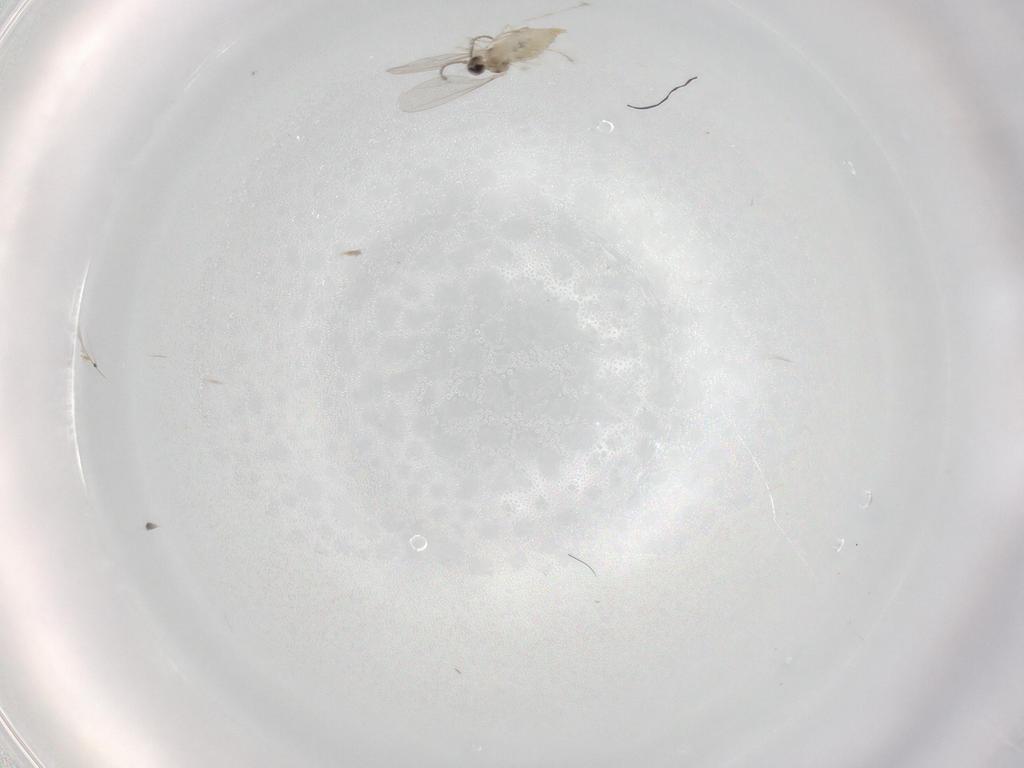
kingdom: Animalia
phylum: Arthropoda
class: Insecta
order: Diptera
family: Cecidomyiidae
